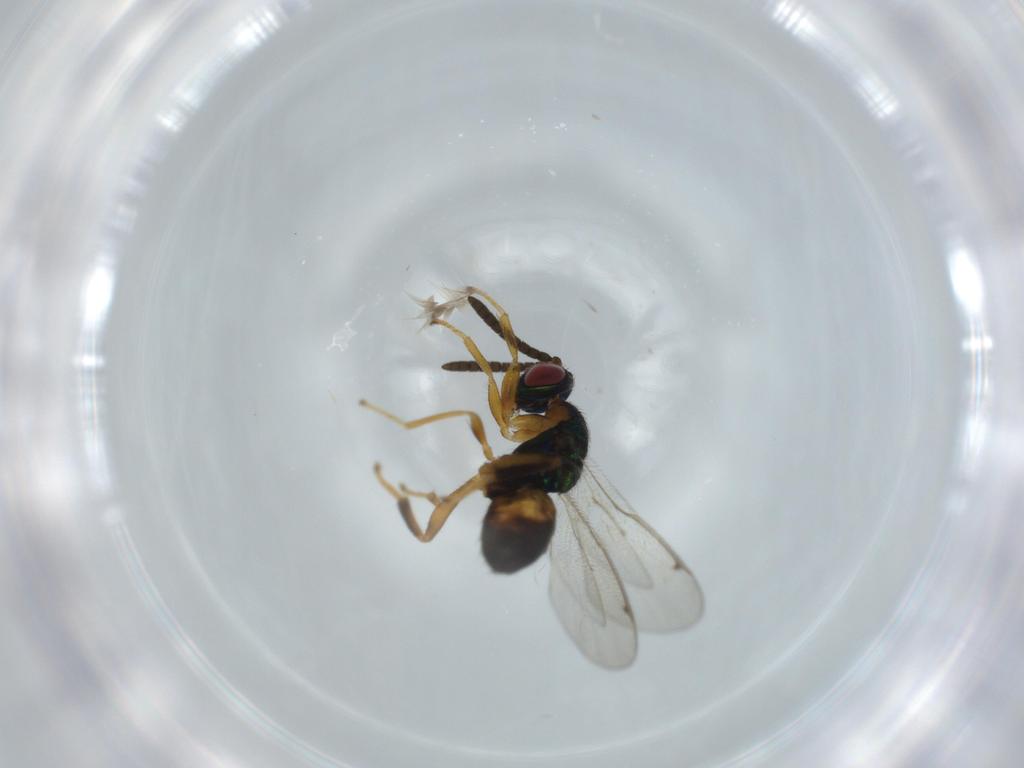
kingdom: Animalia
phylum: Arthropoda
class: Insecta
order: Hymenoptera
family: Torymidae
